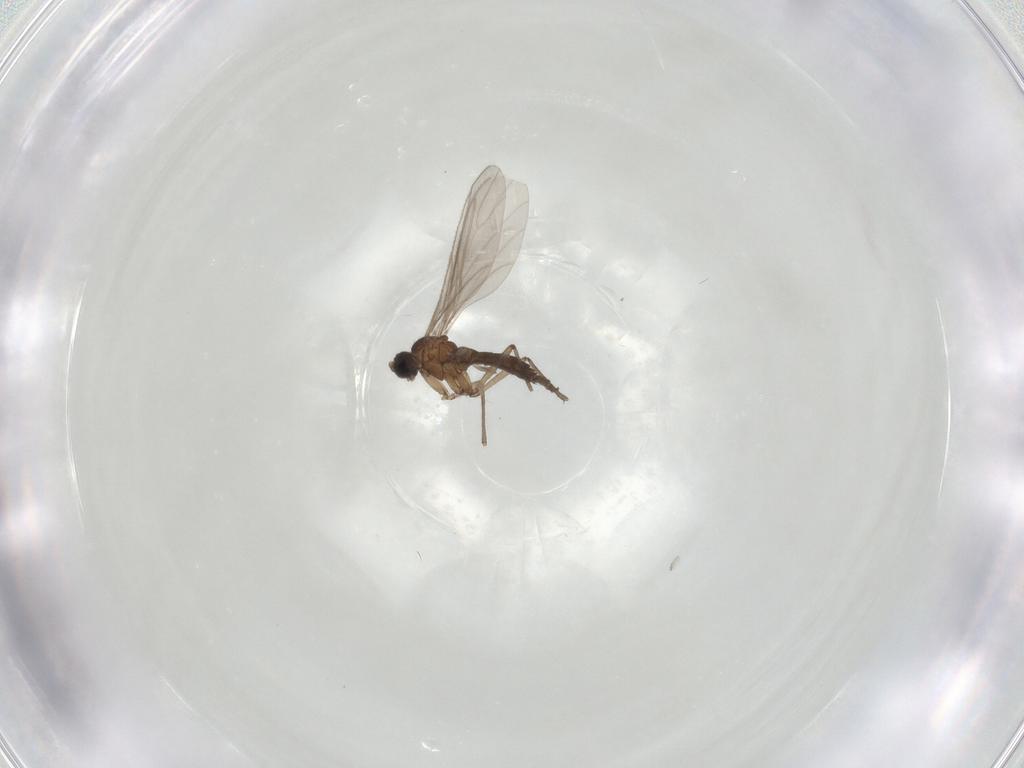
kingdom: Animalia
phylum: Arthropoda
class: Insecta
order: Diptera
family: Sciaridae
